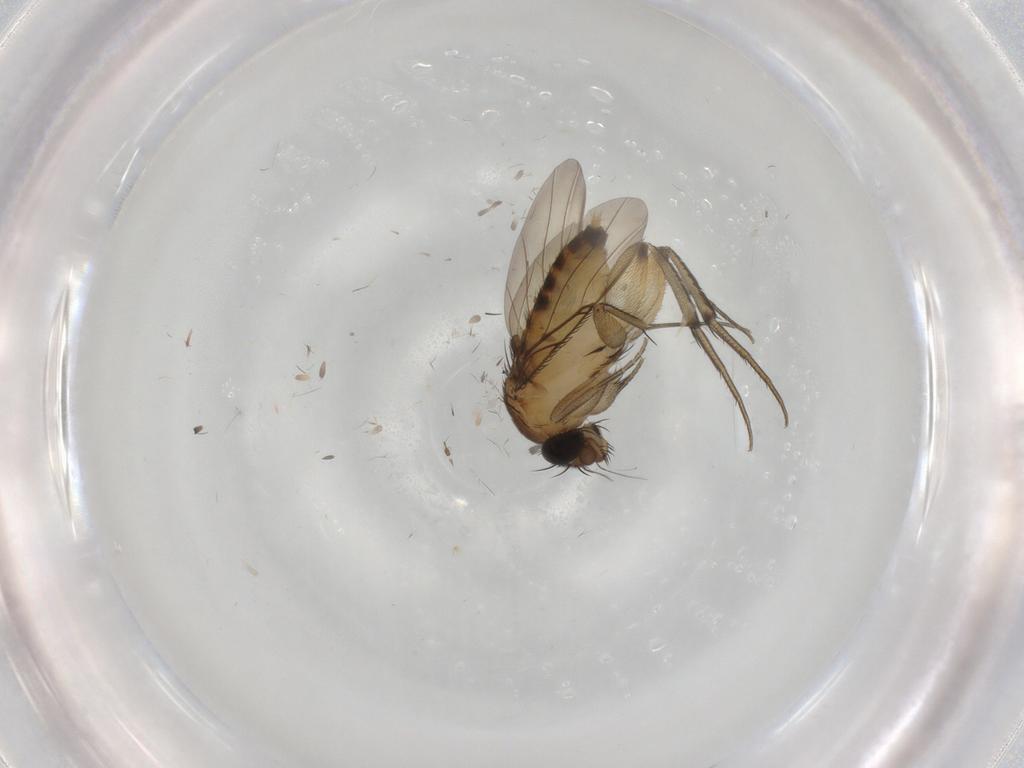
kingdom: Animalia
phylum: Arthropoda
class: Insecta
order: Diptera
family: Phoridae
